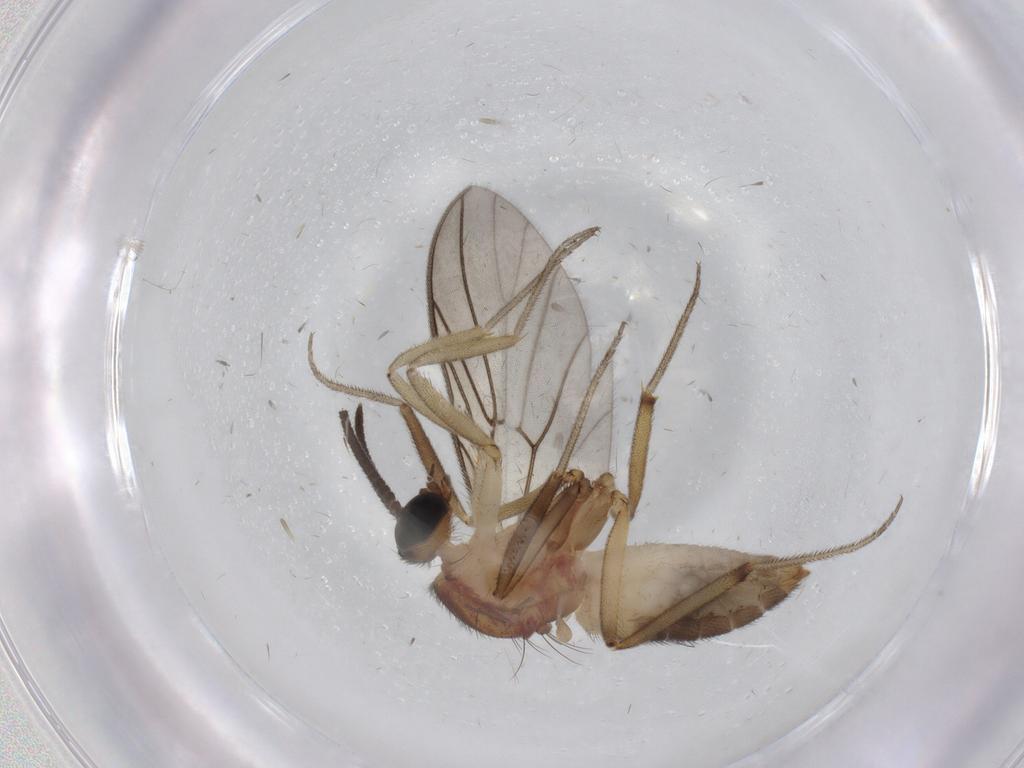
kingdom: Animalia
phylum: Arthropoda
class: Insecta
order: Diptera
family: Anisopodidae
